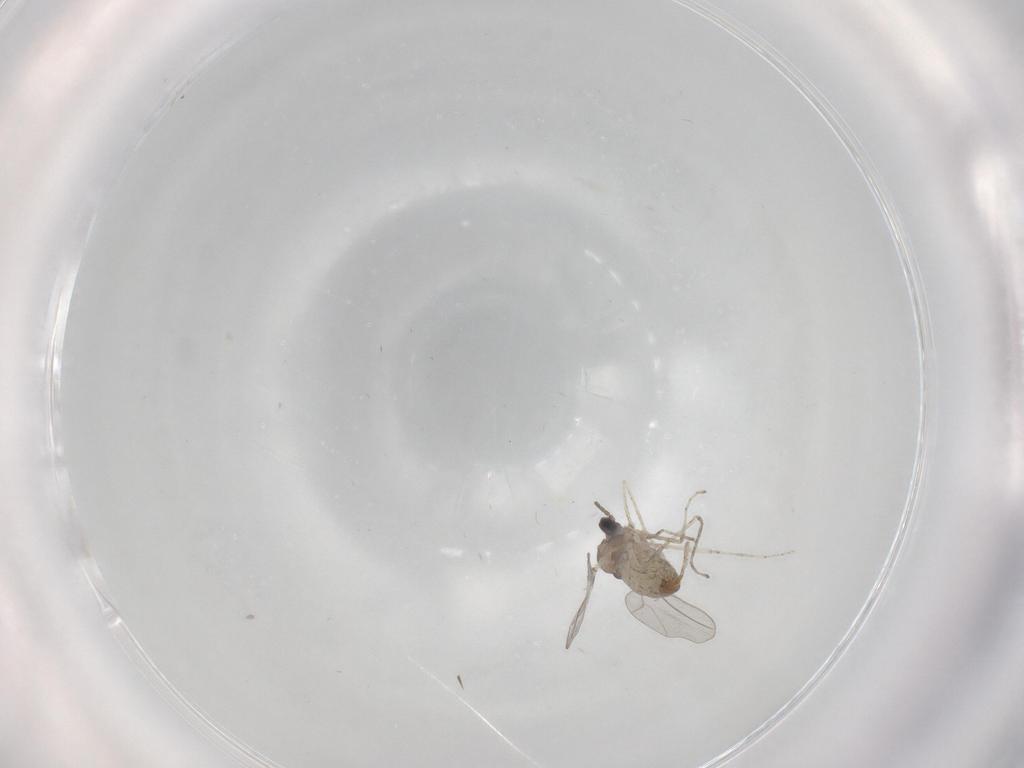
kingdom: Animalia
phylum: Arthropoda
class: Insecta
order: Diptera
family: Cecidomyiidae
